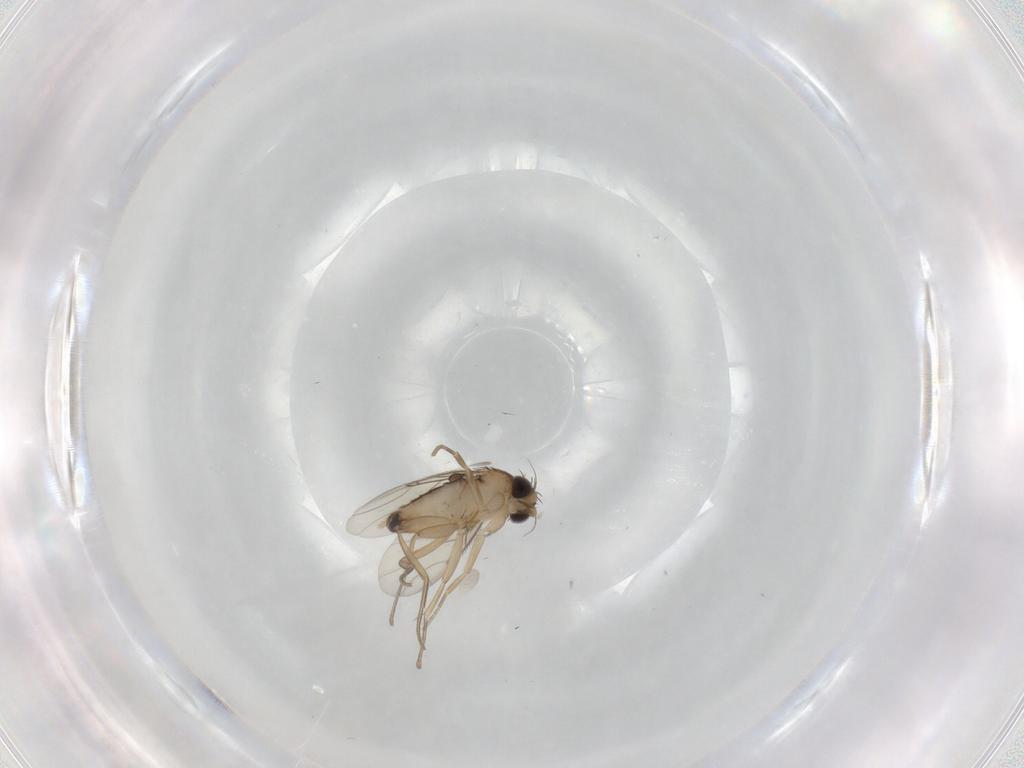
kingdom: Animalia
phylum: Arthropoda
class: Insecta
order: Diptera
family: Phoridae
